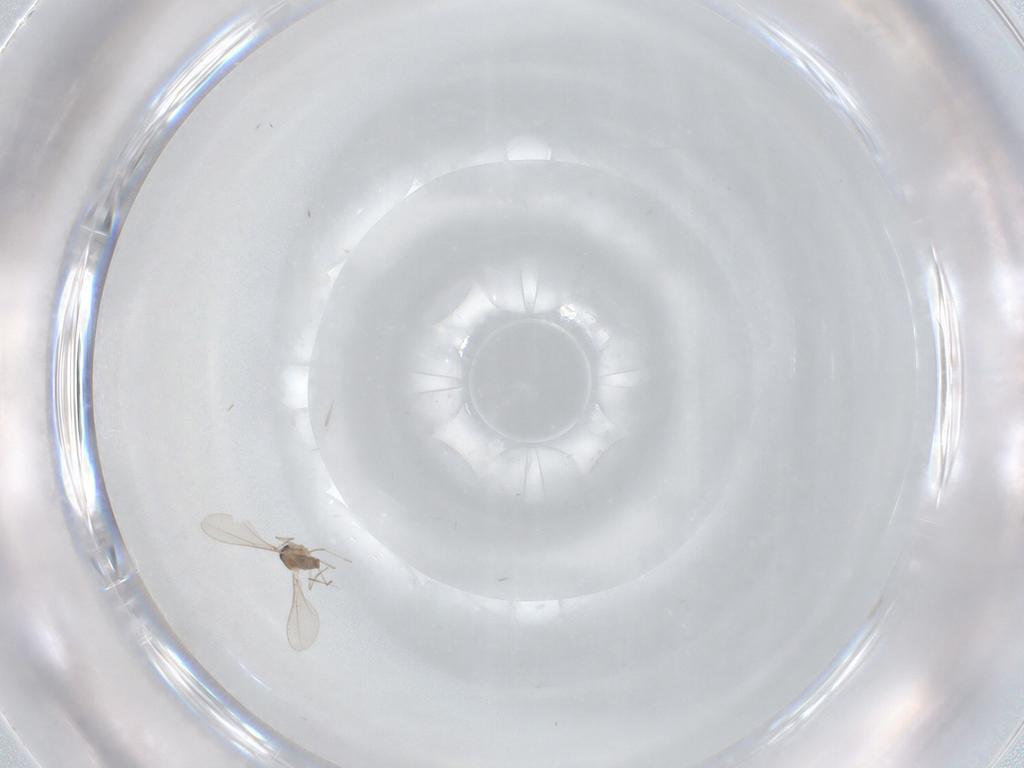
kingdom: Animalia
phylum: Arthropoda
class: Insecta
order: Diptera
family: Cecidomyiidae
